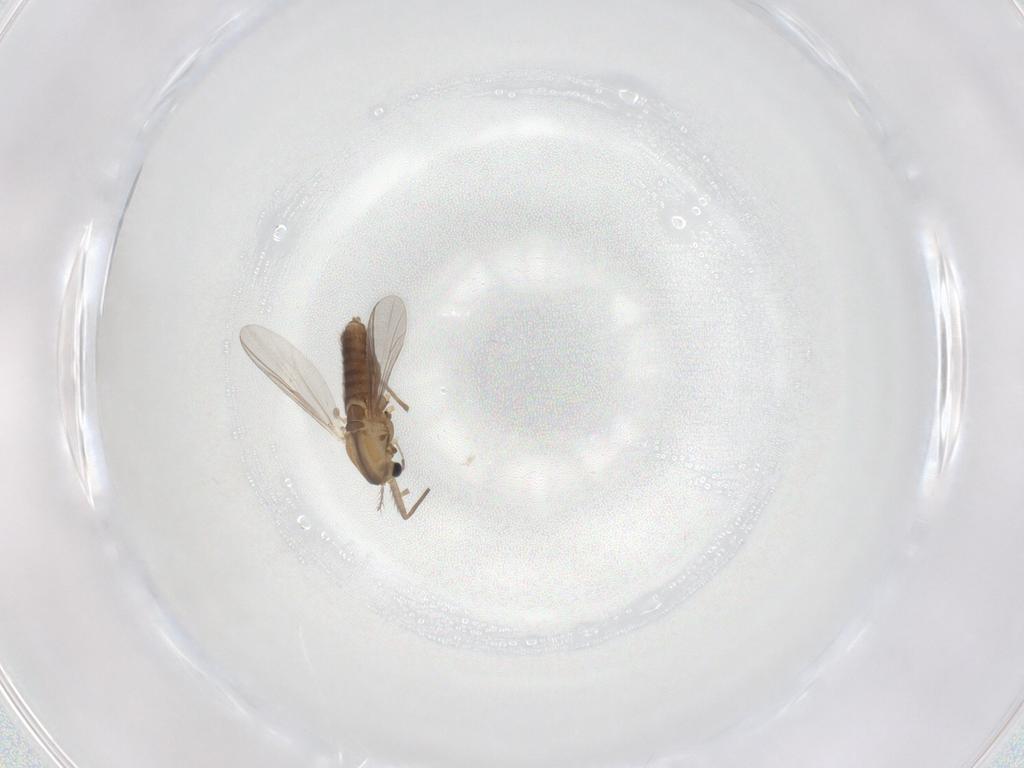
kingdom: Animalia
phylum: Arthropoda
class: Insecta
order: Diptera
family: Chironomidae
